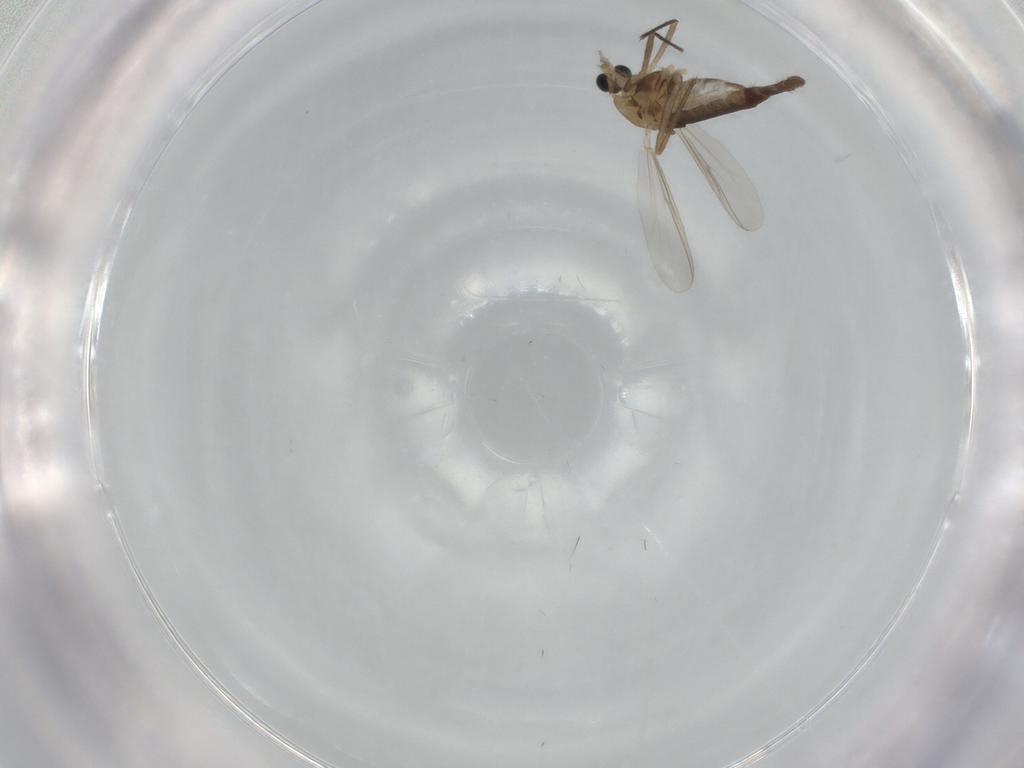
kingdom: Animalia
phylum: Arthropoda
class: Insecta
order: Diptera
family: Chironomidae
